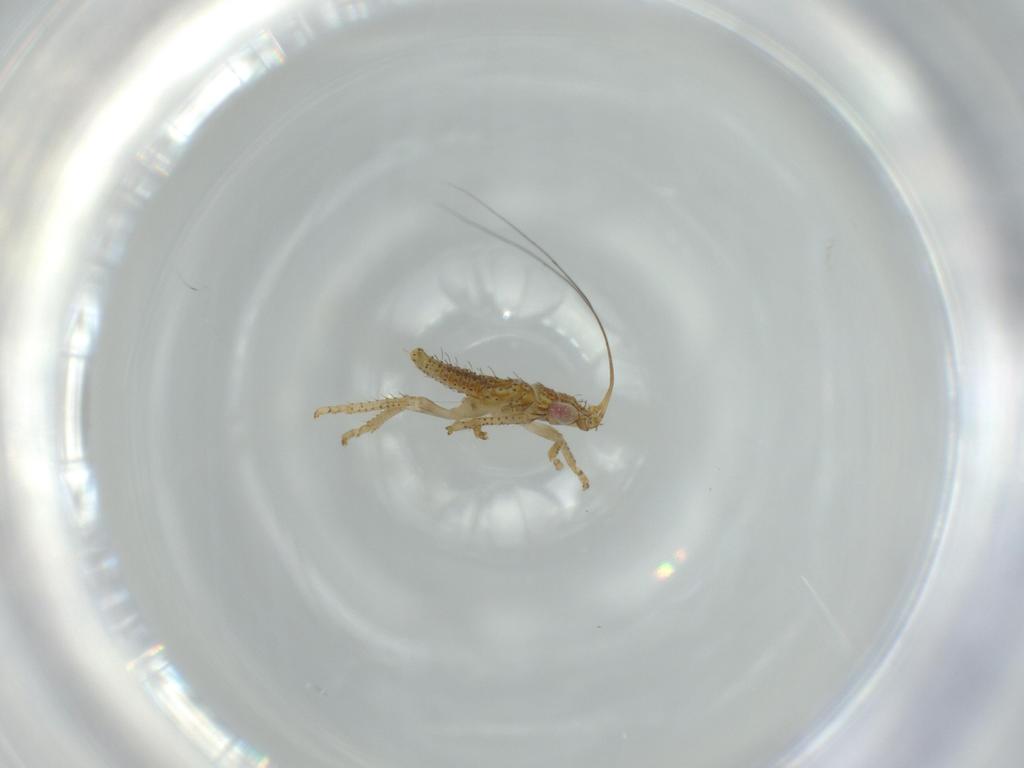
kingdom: Animalia
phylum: Arthropoda
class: Insecta
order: Hemiptera
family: Cicadellidae
